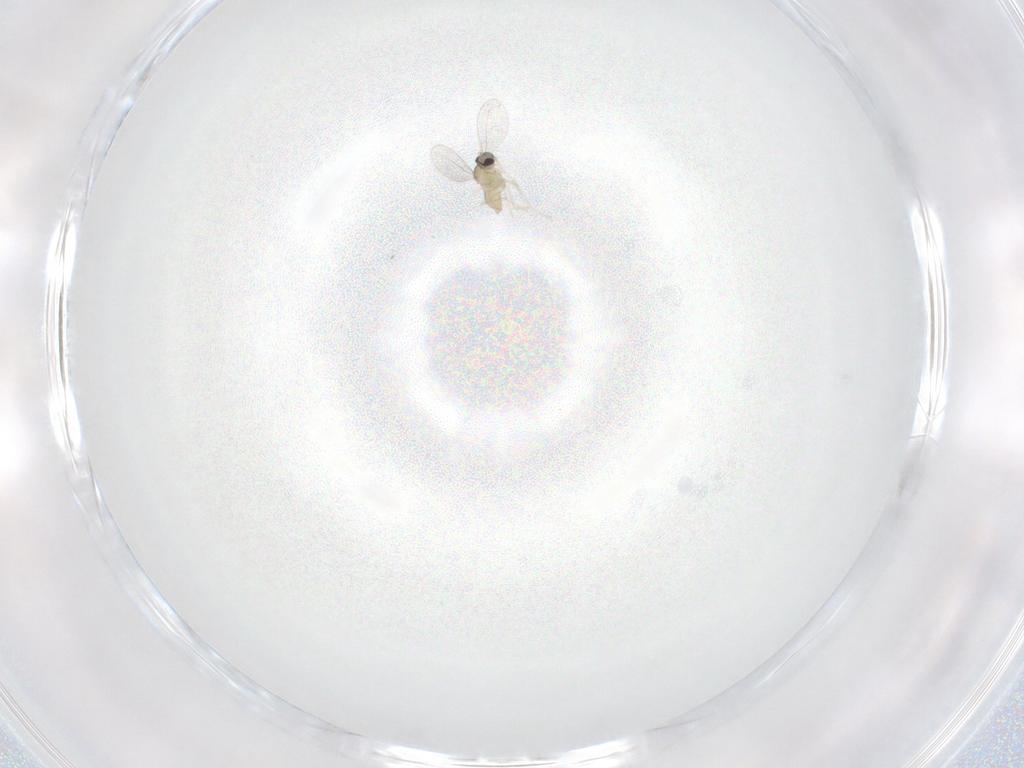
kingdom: Animalia
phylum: Arthropoda
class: Insecta
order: Diptera
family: Cecidomyiidae
